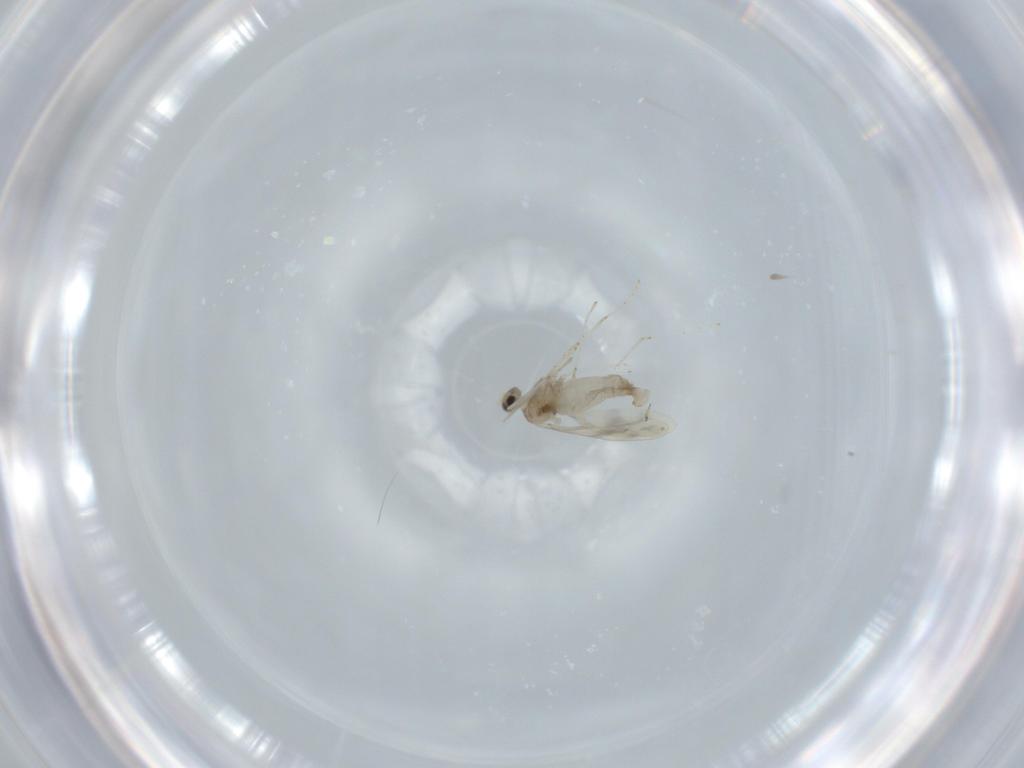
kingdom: Animalia
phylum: Arthropoda
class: Insecta
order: Diptera
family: Cecidomyiidae
